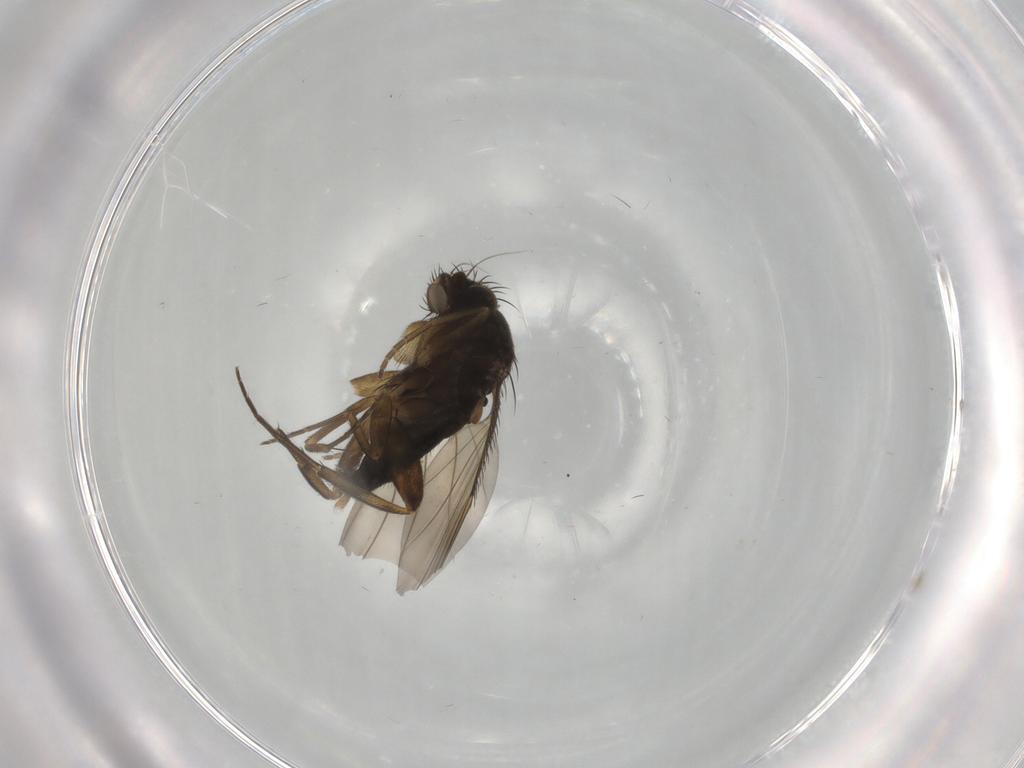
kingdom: Animalia
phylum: Arthropoda
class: Insecta
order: Diptera
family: Phoridae
